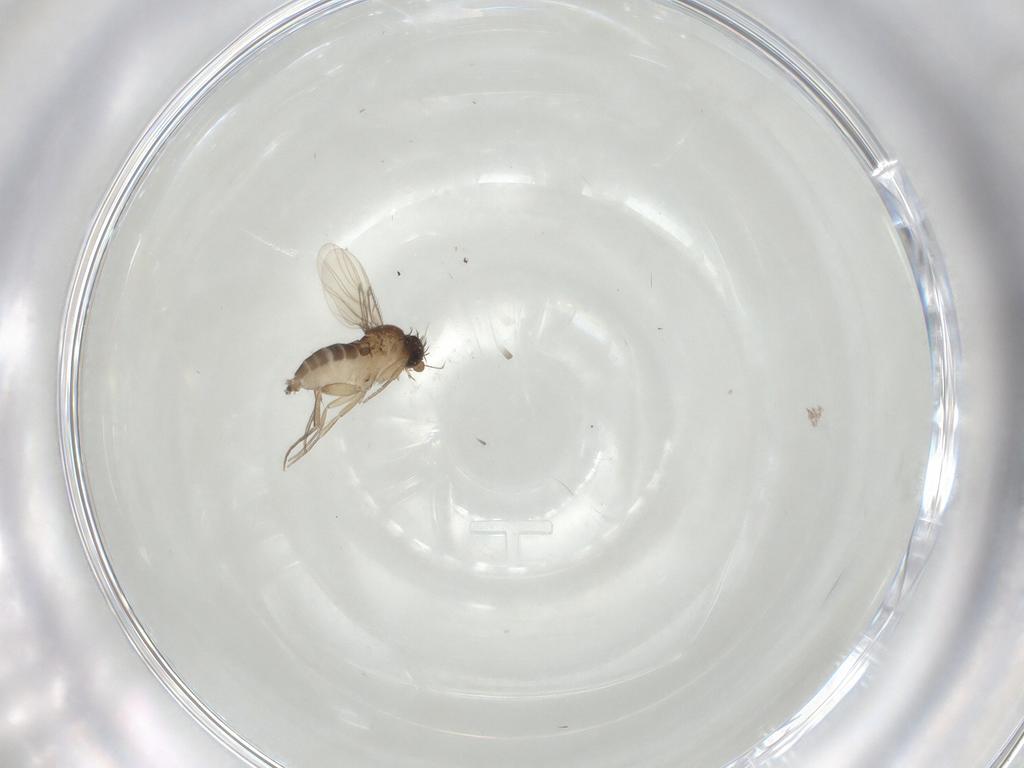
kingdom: Animalia
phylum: Arthropoda
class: Insecta
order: Diptera
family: Phoridae
